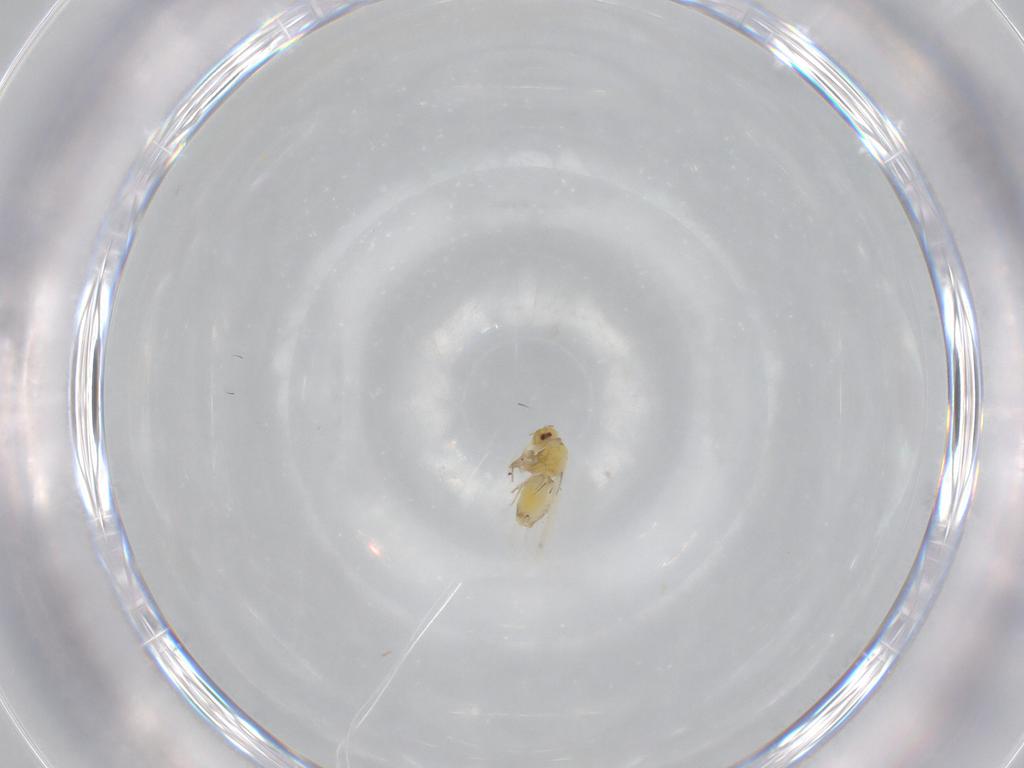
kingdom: Animalia
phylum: Arthropoda
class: Insecta
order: Hemiptera
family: Aleyrodidae
